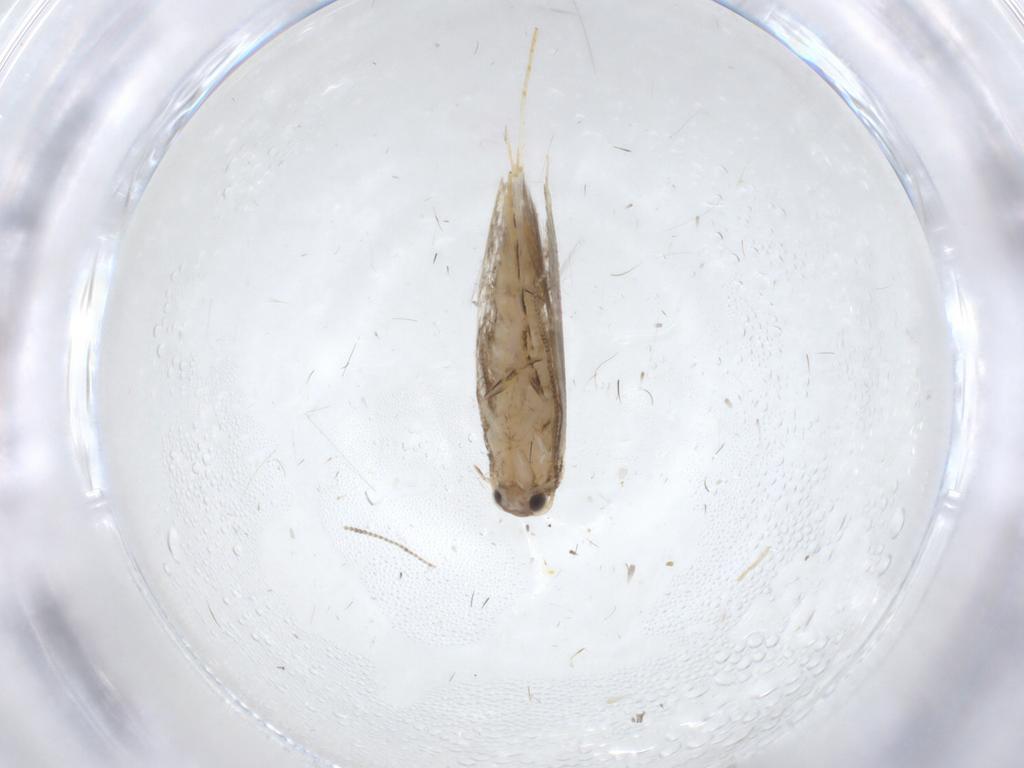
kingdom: Animalia
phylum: Arthropoda
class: Insecta
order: Lepidoptera
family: Tineidae
